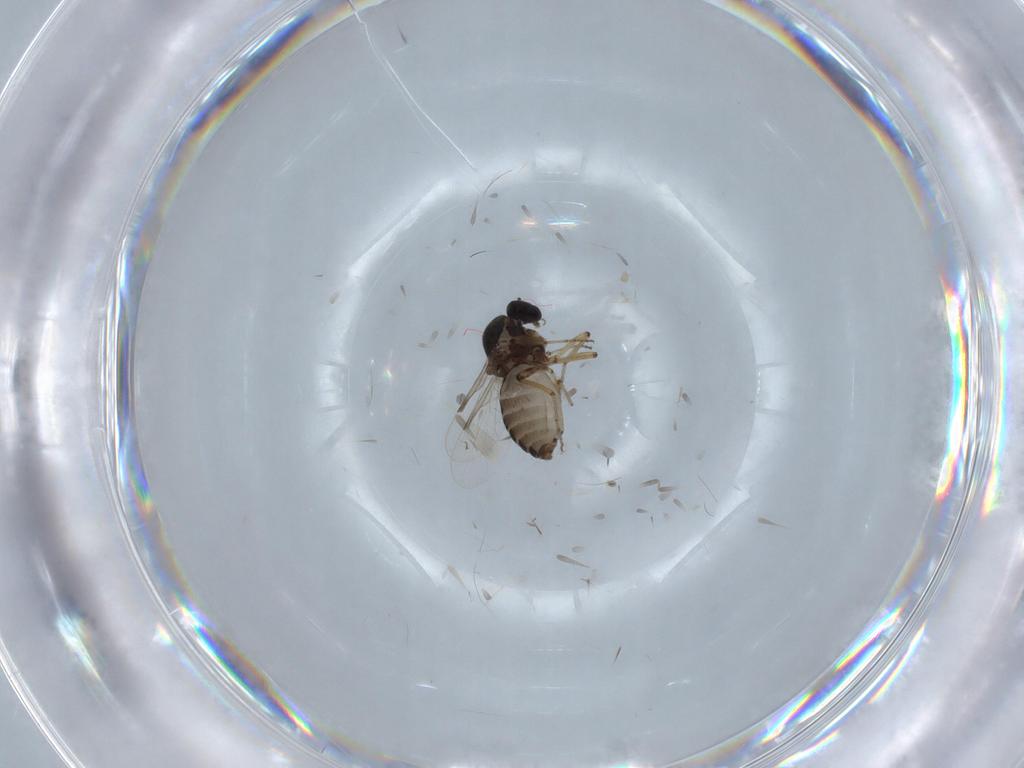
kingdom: Animalia
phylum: Arthropoda
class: Insecta
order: Diptera
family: Ceratopogonidae
